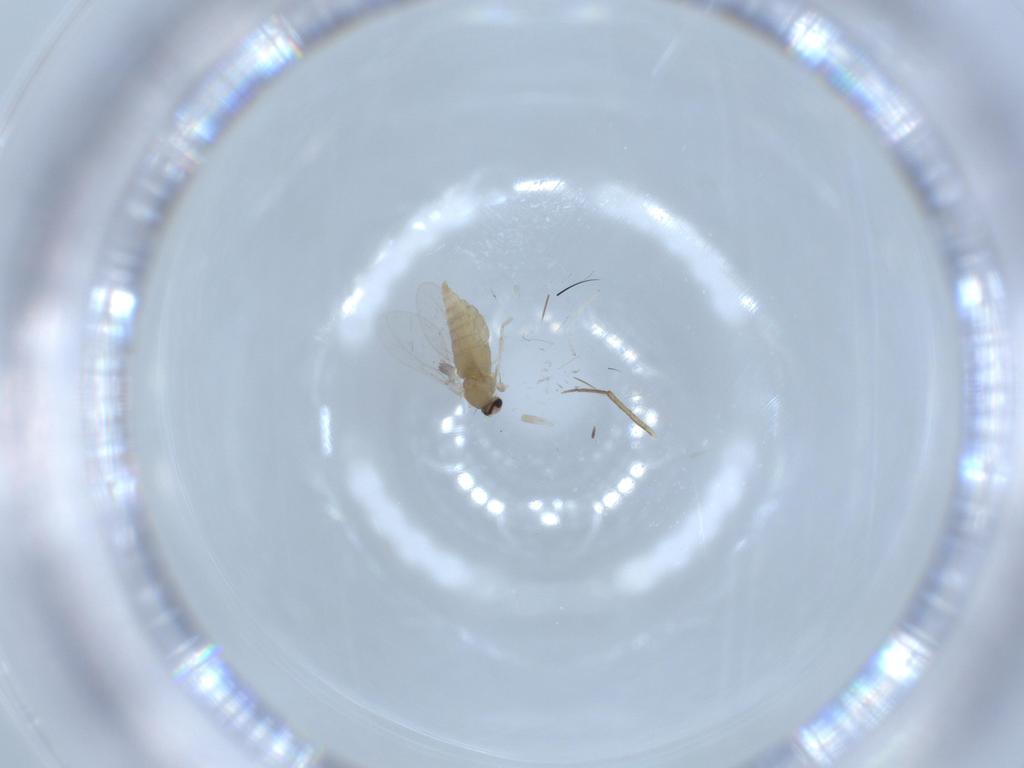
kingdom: Animalia
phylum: Arthropoda
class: Insecta
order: Diptera
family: Cecidomyiidae
